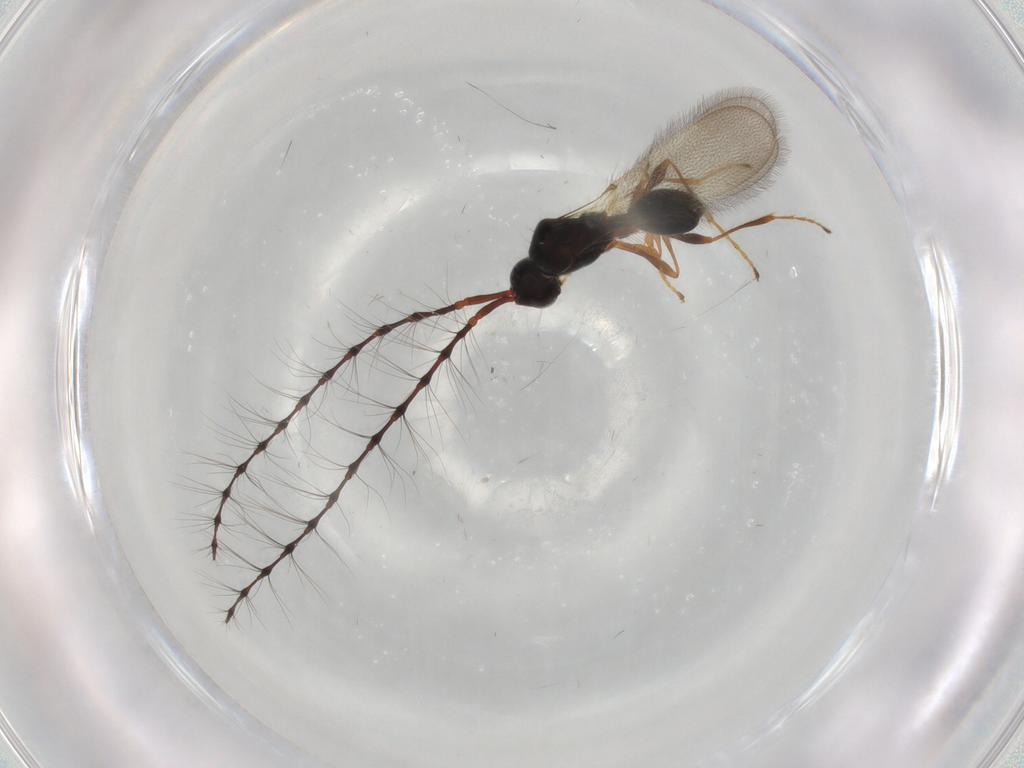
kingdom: Animalia
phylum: Arthropoda
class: Insecta
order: Hymenoptera
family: Diapriidae
